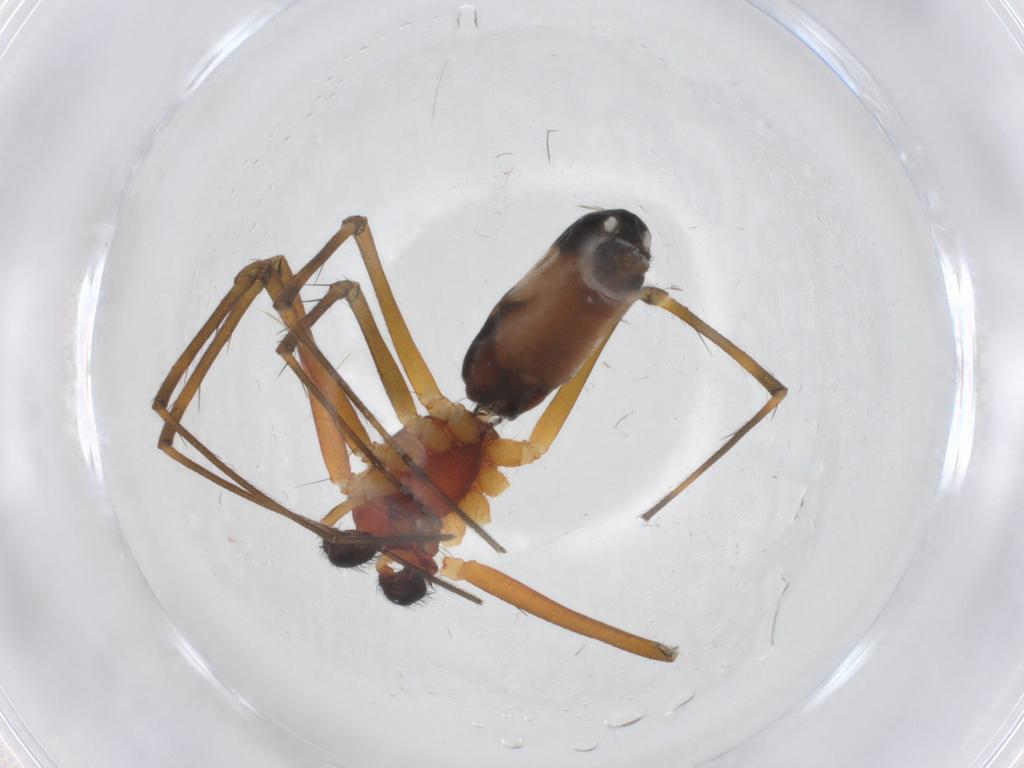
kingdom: Animalia
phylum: Arthropoda
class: Arachnida
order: Araneae
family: Linyphiidae
